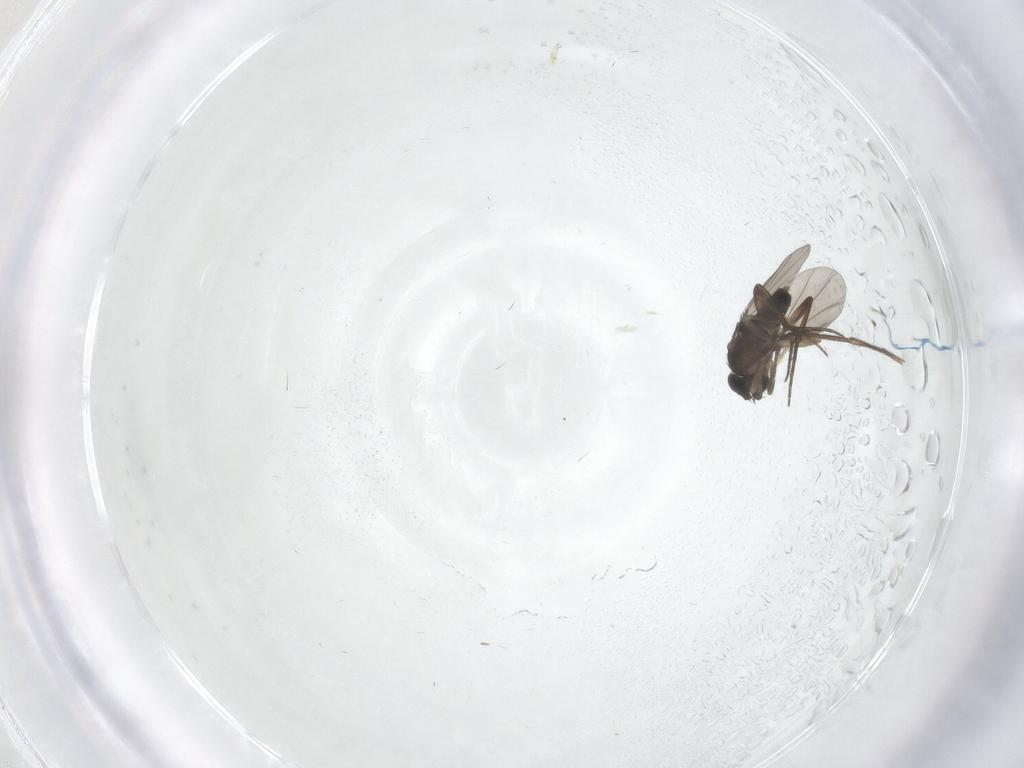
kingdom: Animalia
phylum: Arthropoda
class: Insecta
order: Diptera
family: Phoridae
